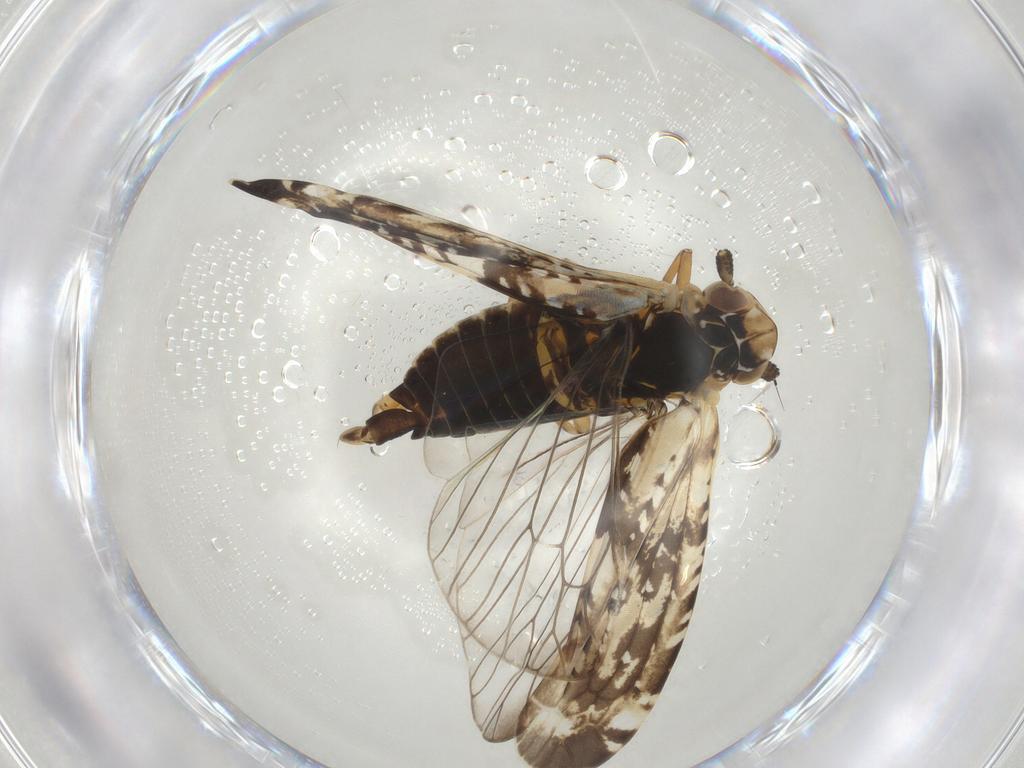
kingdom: Animalia
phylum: Arthropoda
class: Insecta
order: Hemiptera
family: Achilidae
